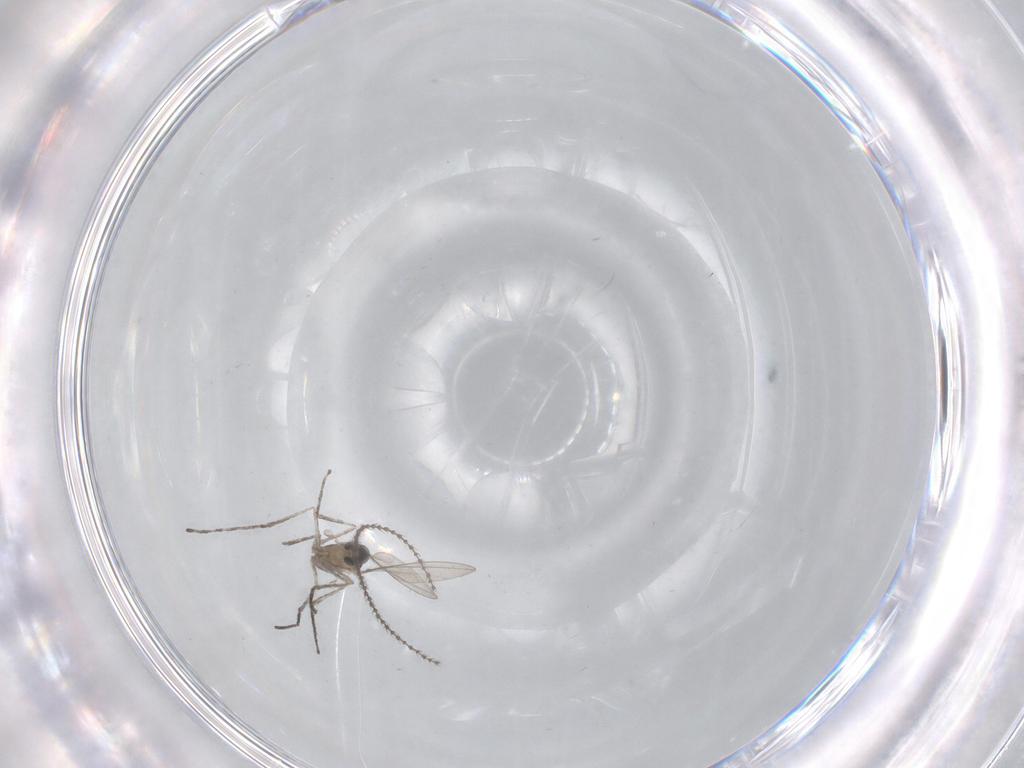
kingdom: Animalia
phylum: Arthropoda
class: Insecta
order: Diptera
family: Cecidomyiidae
